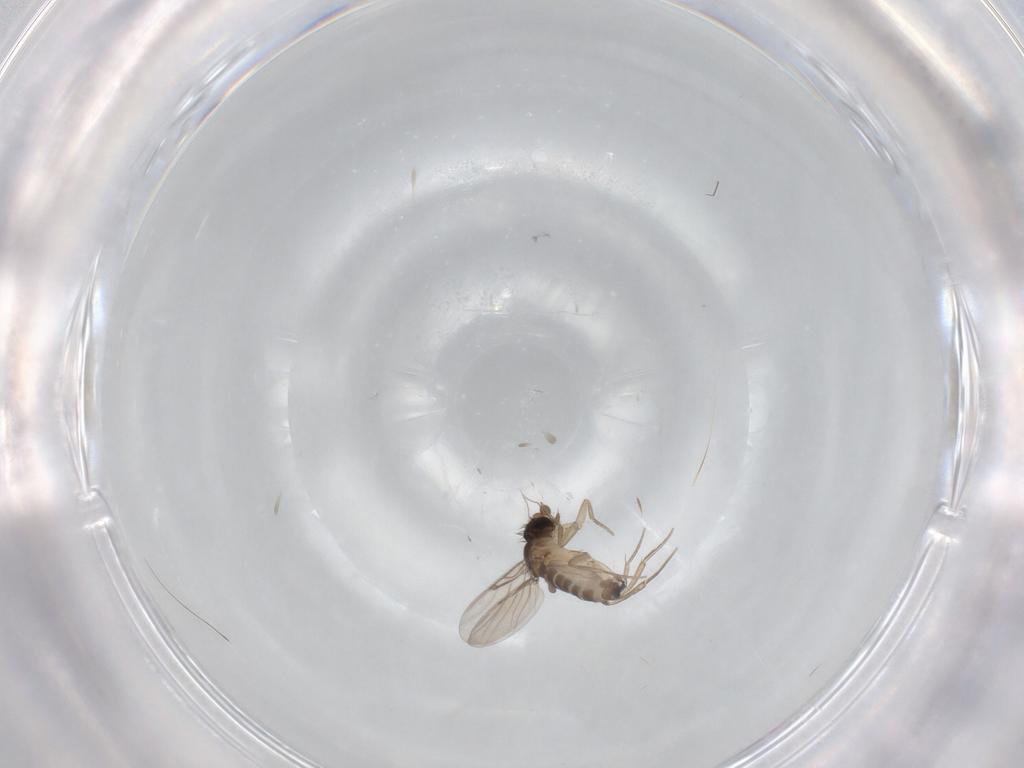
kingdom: Animalia
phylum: Arthropoda
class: Insecta
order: Diptera
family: Phoridae
